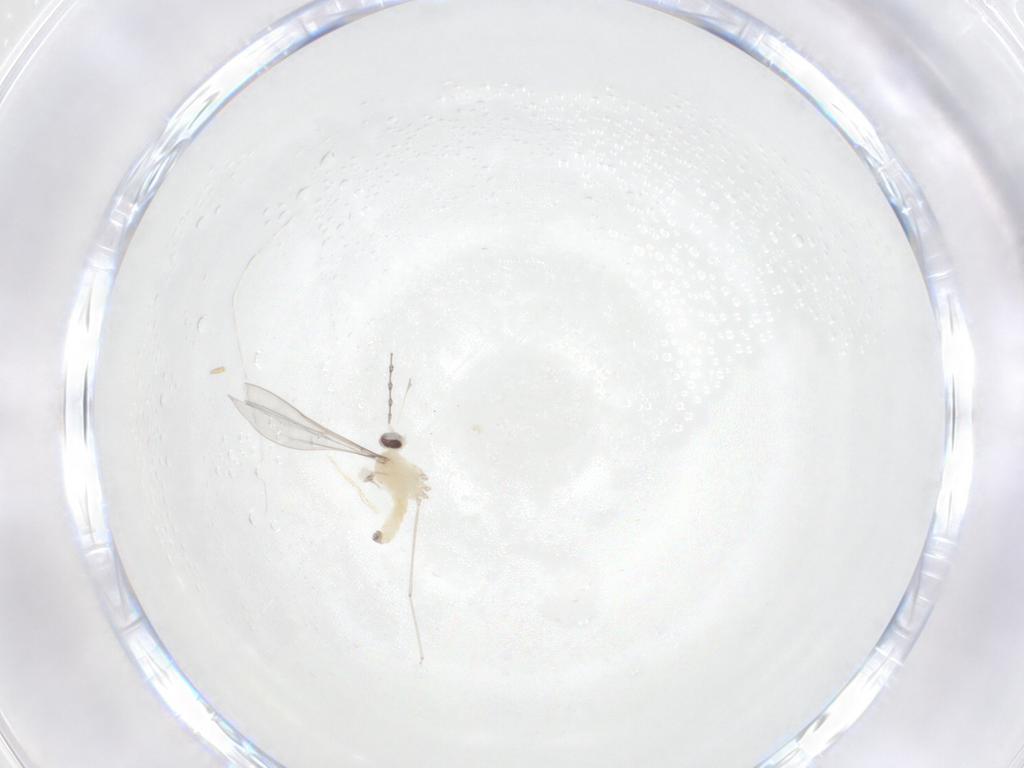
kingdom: Animalia
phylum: Arthropoda
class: Insecta
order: Diptera
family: Cecidomyiidae
